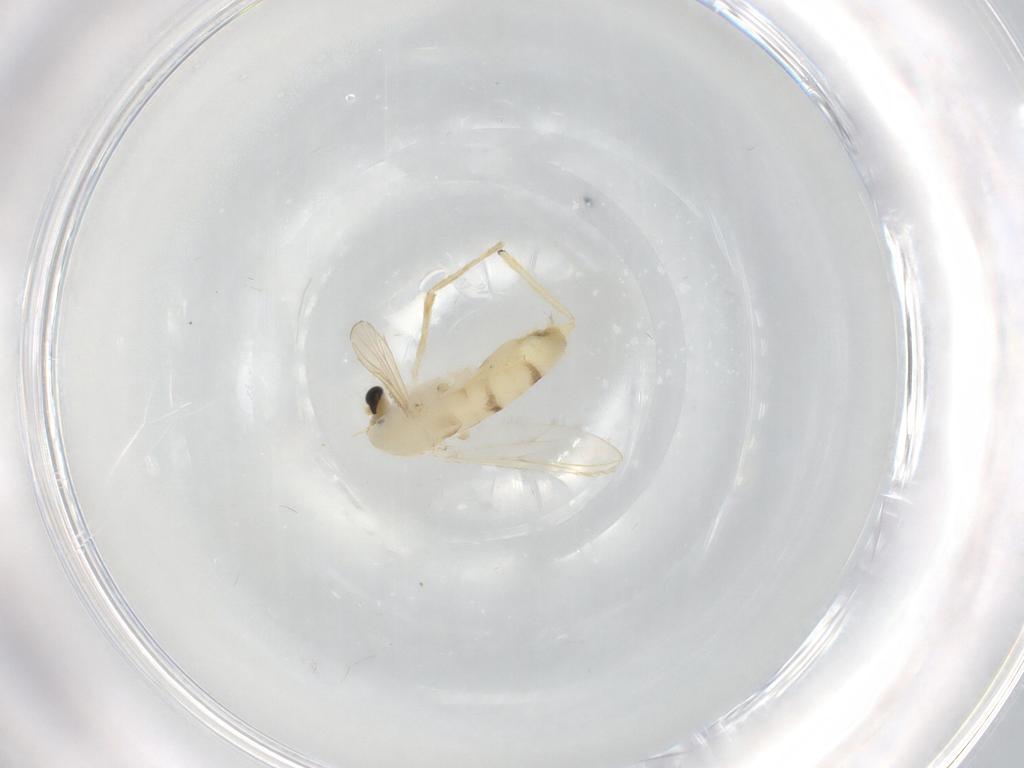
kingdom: Animalia
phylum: Arthropoda
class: Insecta
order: Diptera
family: Chironomidae
